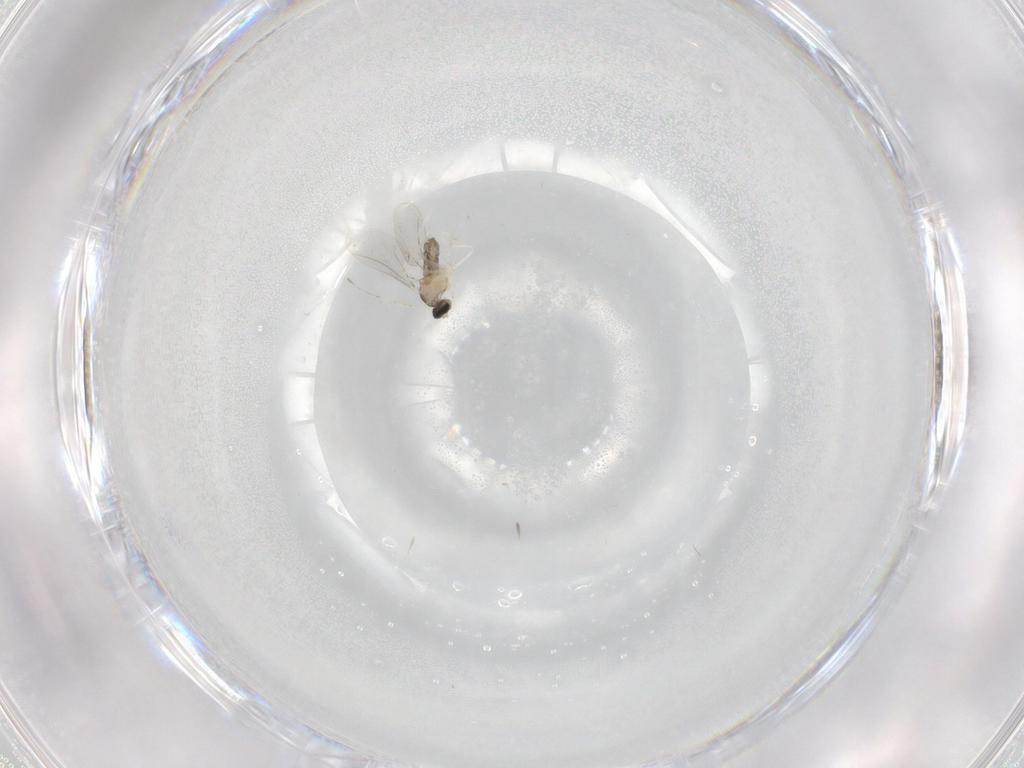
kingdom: Animalia
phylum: Arthropoda
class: Insecta
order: Diptera
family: Cecidomyiidae
